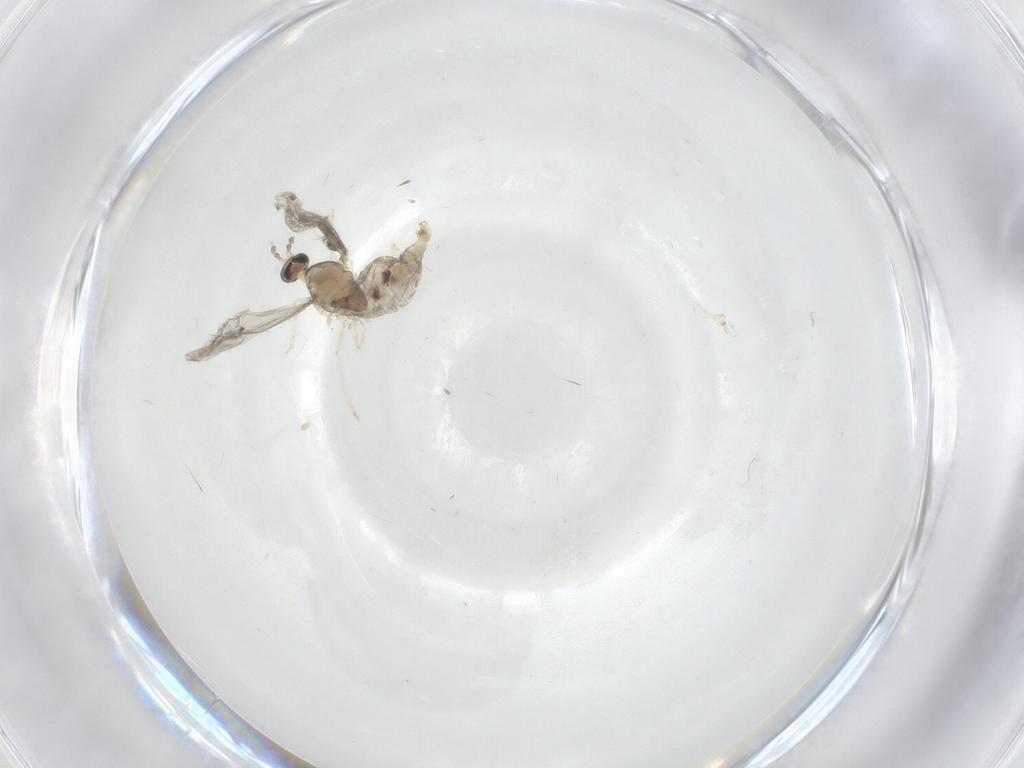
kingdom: Animalia
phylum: Arthropoda
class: Insecta
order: Diptera
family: Cecidomyiidae
